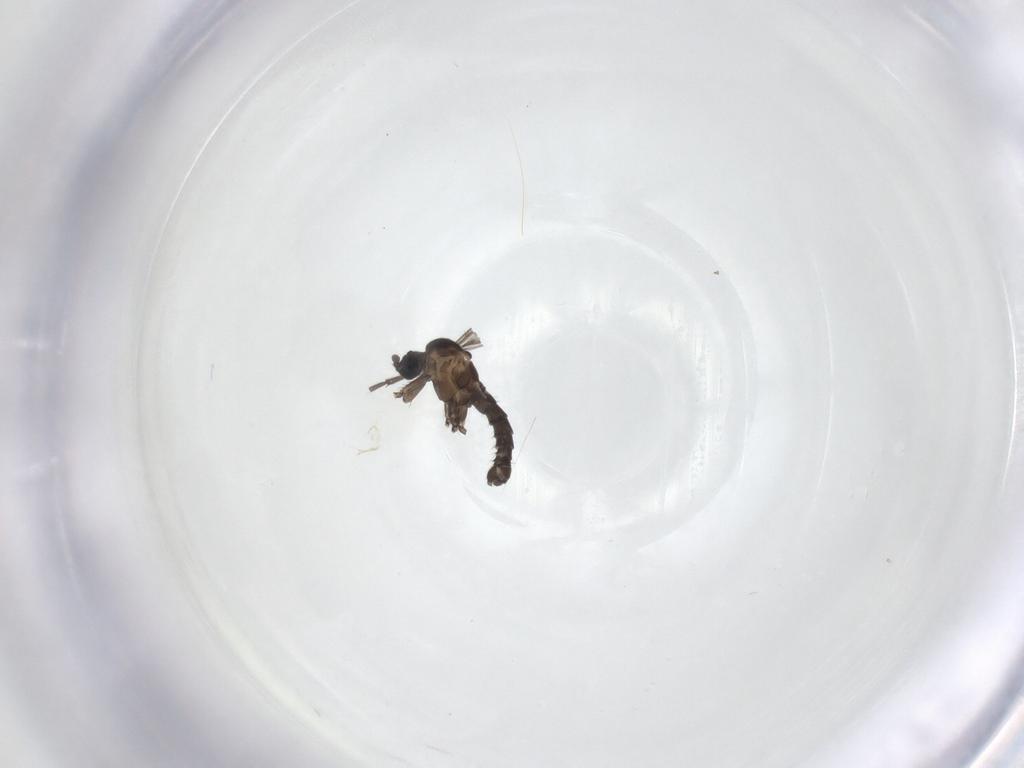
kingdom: Animalia
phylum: Arthropoda
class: Insecta
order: Diptera
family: Sciaridae
